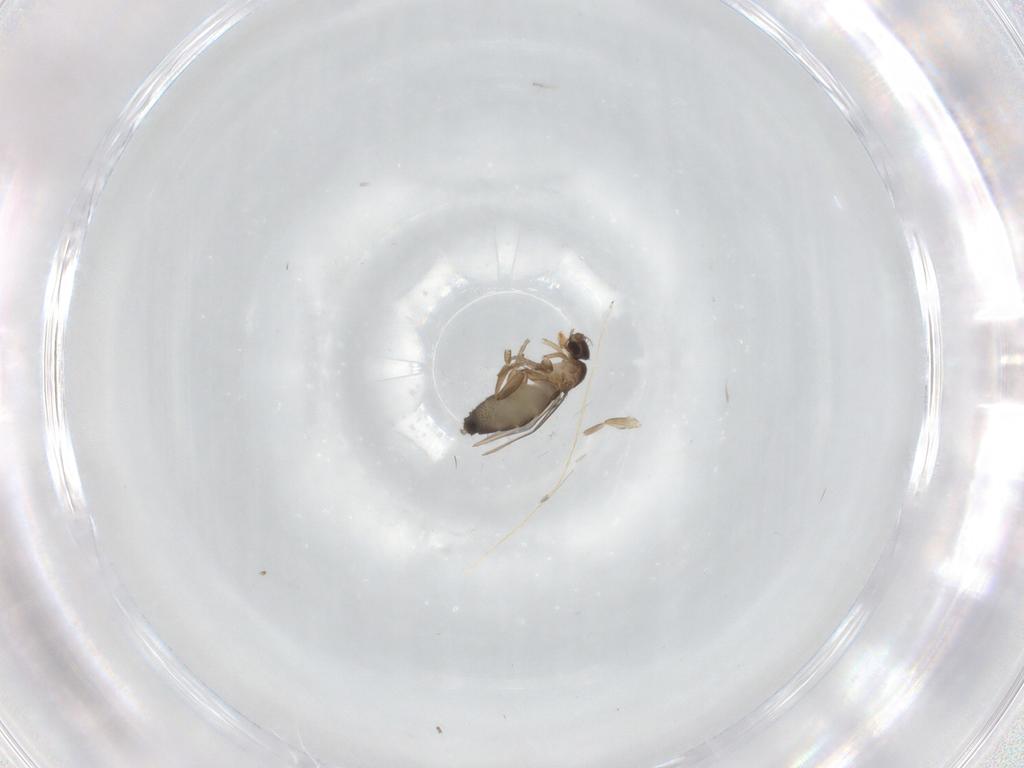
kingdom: Animalia
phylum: Arthropoda
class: Insecta
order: Diptera
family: Phoridae
